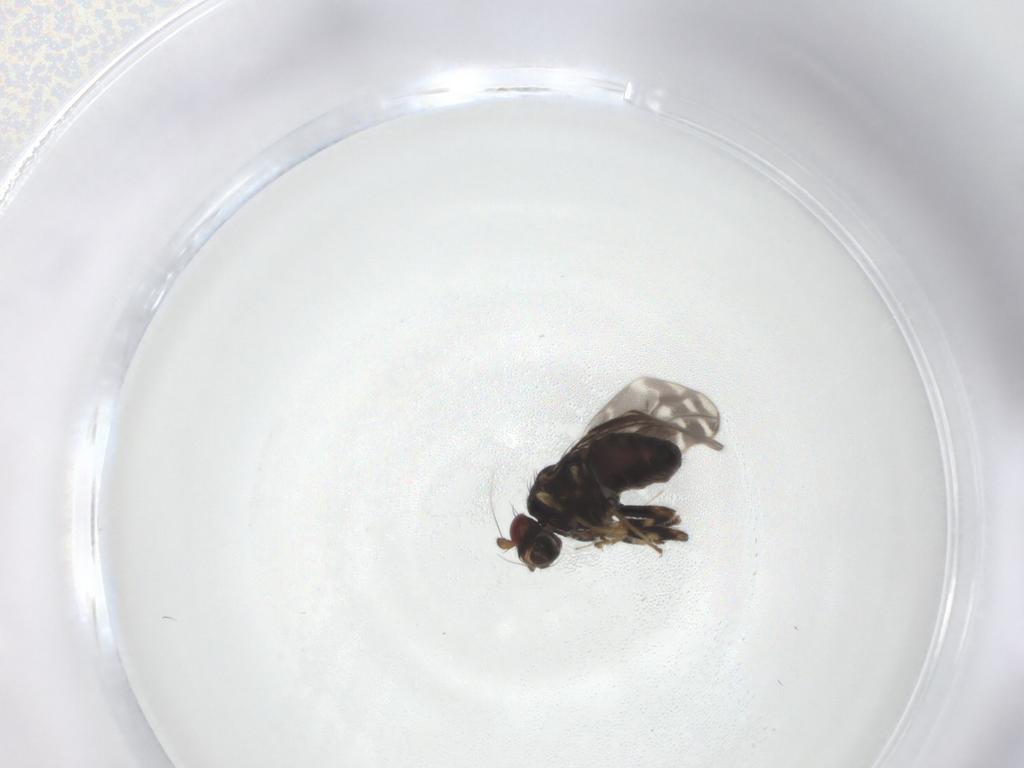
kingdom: Animalia
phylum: Arthropoda
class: Insecta
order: Diptera
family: Sphaeroceridae
